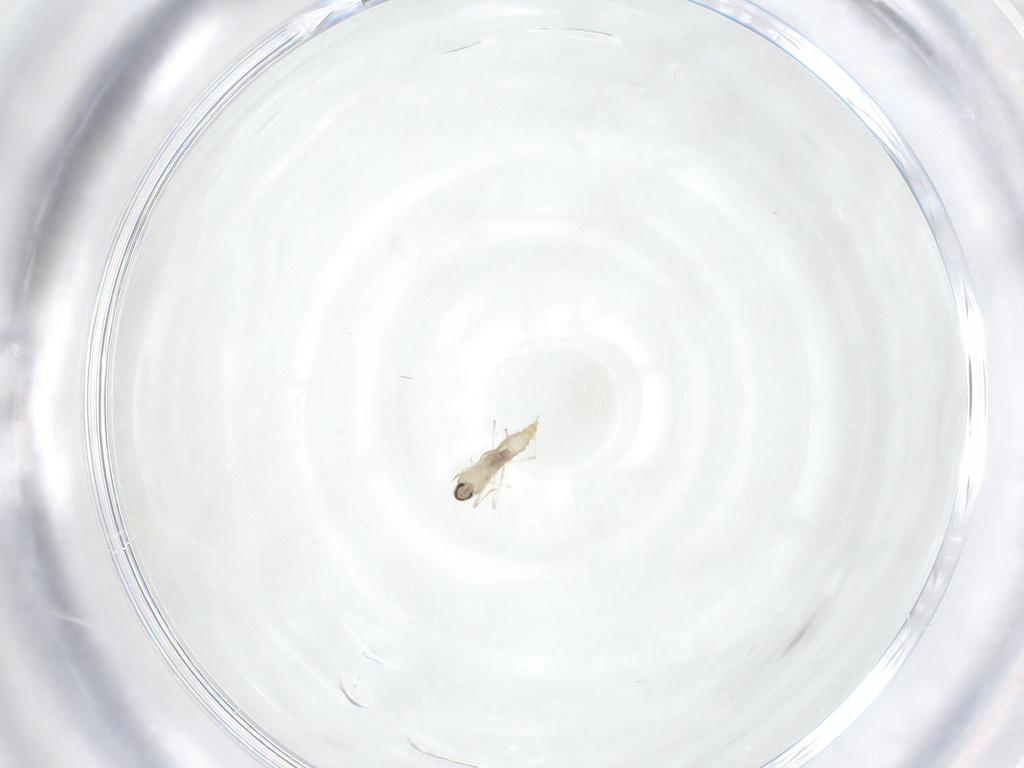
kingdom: Animalia
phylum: Arthropoda
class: Insecta
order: Diptera
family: Cecidomyiidae
